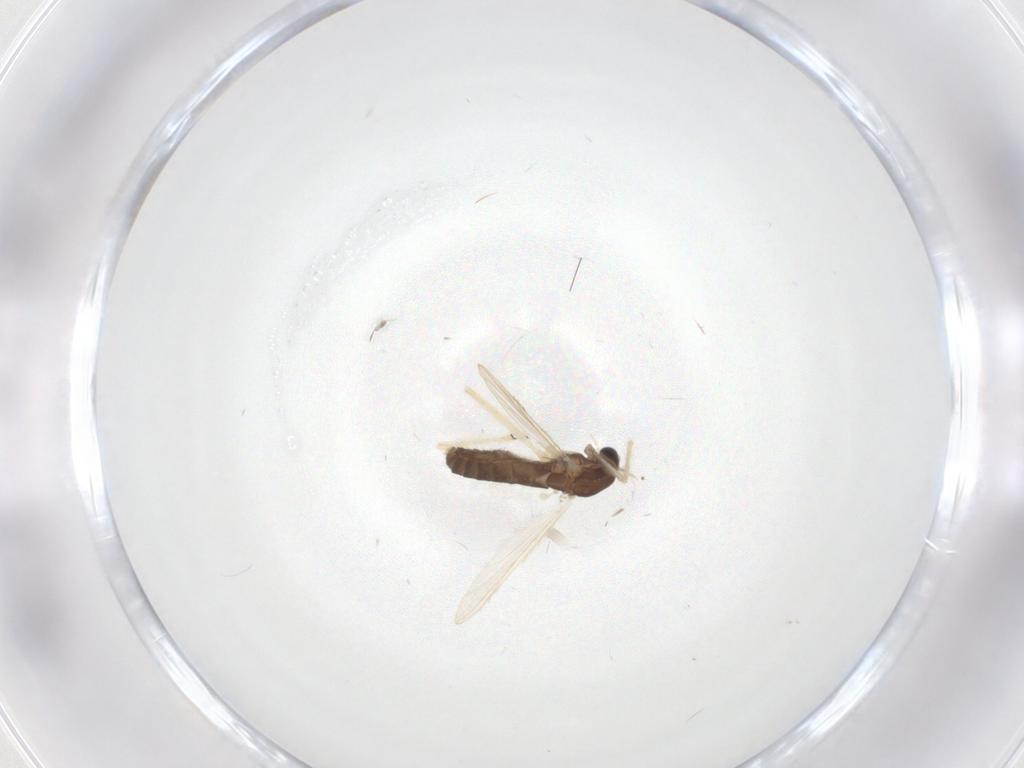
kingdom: Animalia
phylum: Arthropoda
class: Insecta
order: Diptera
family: Chironomidae
